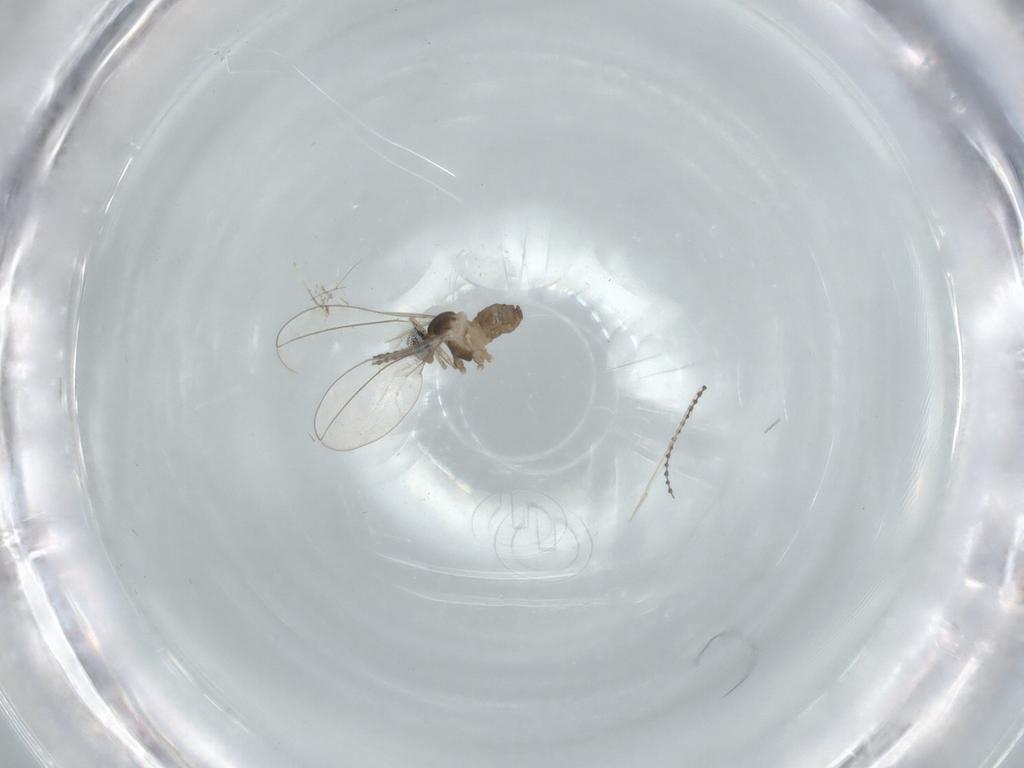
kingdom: Animalia
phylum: Arthropoda
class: Insecta
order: Diptera
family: Cecidomyiidae
